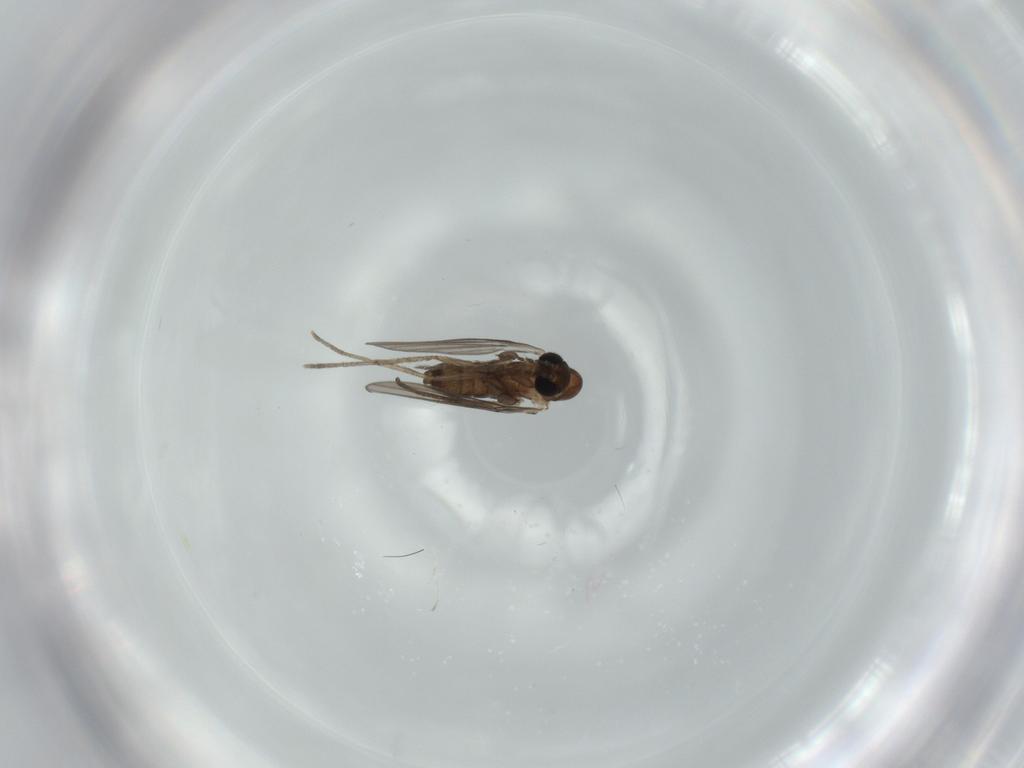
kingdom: Animalia
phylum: Arthropoda
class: Insecta
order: Diptera
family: Psychodidae
